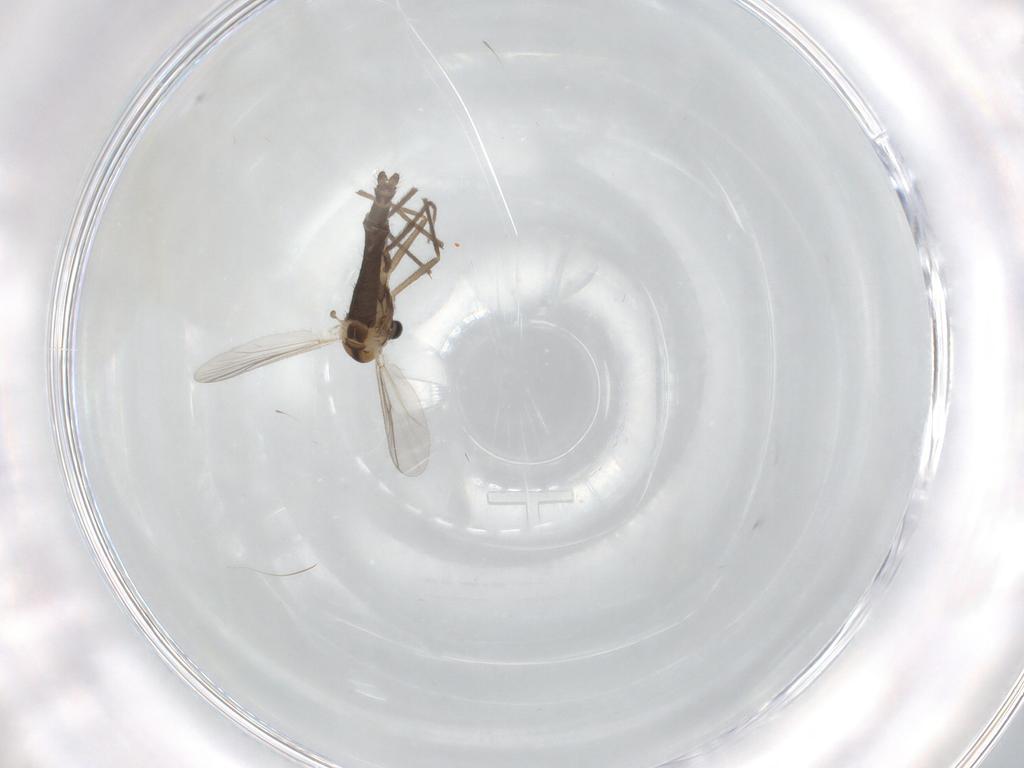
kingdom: Animalia
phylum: Arthropoda
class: Insecta
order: Diptera
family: Chironomidae
